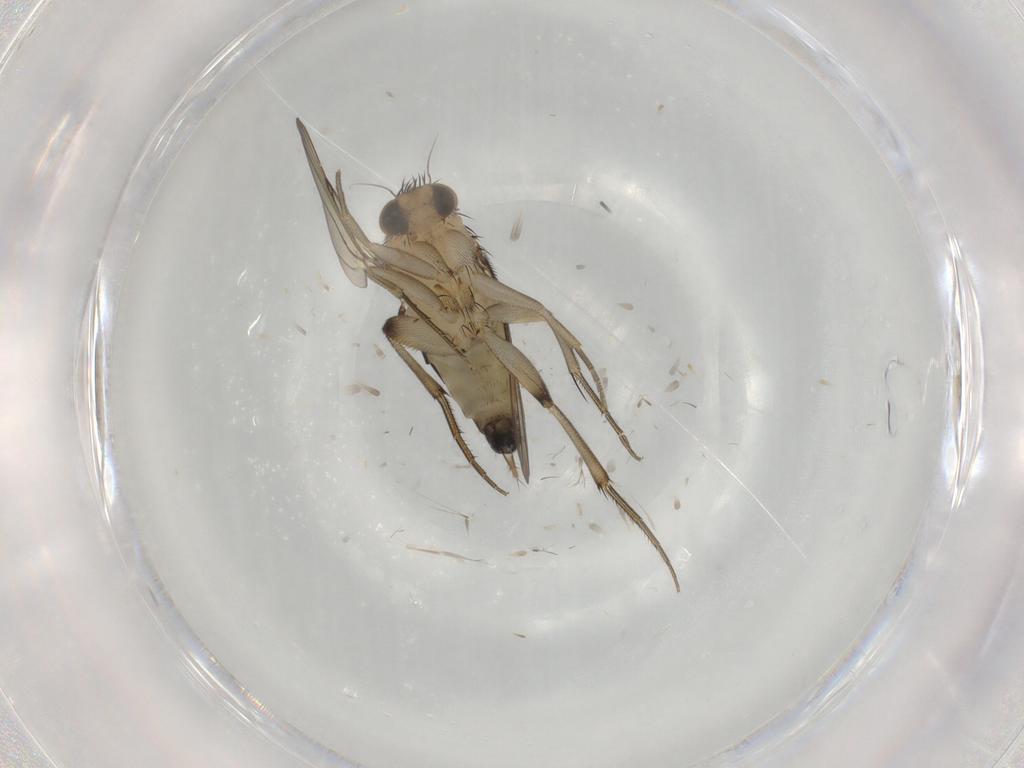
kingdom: Animalia
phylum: Arthropoda
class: Insecta
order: Diptera
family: Phoridae
